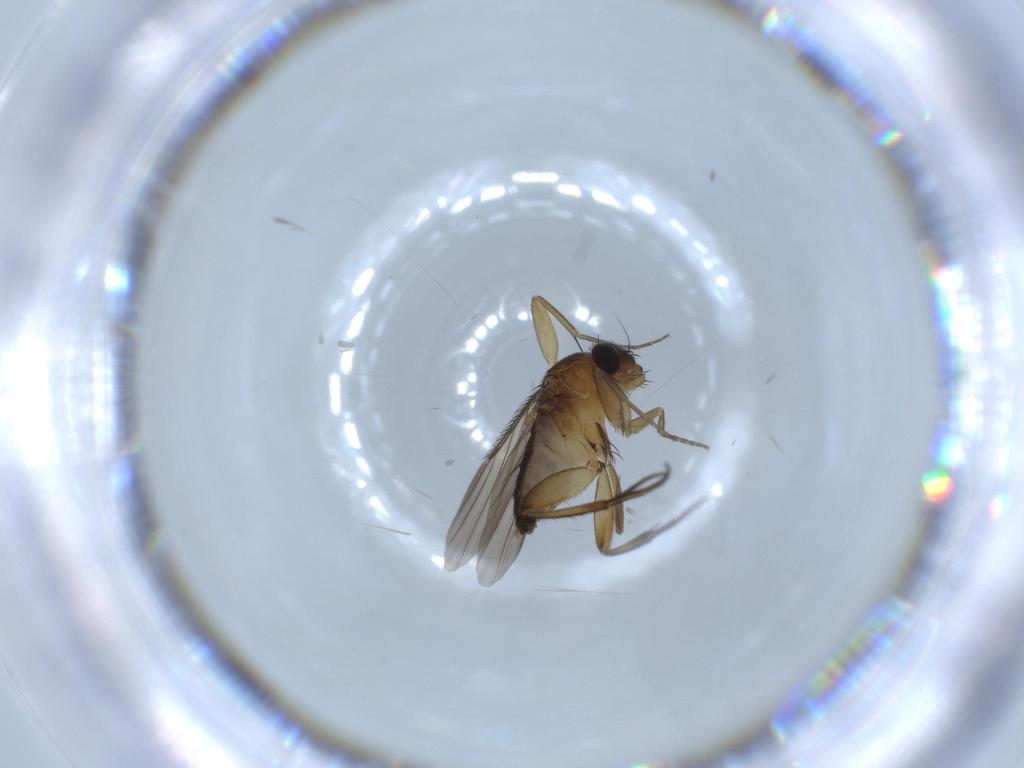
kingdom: Animalia
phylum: Arthropoda
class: Insecta
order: Diptera
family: Phoridae
